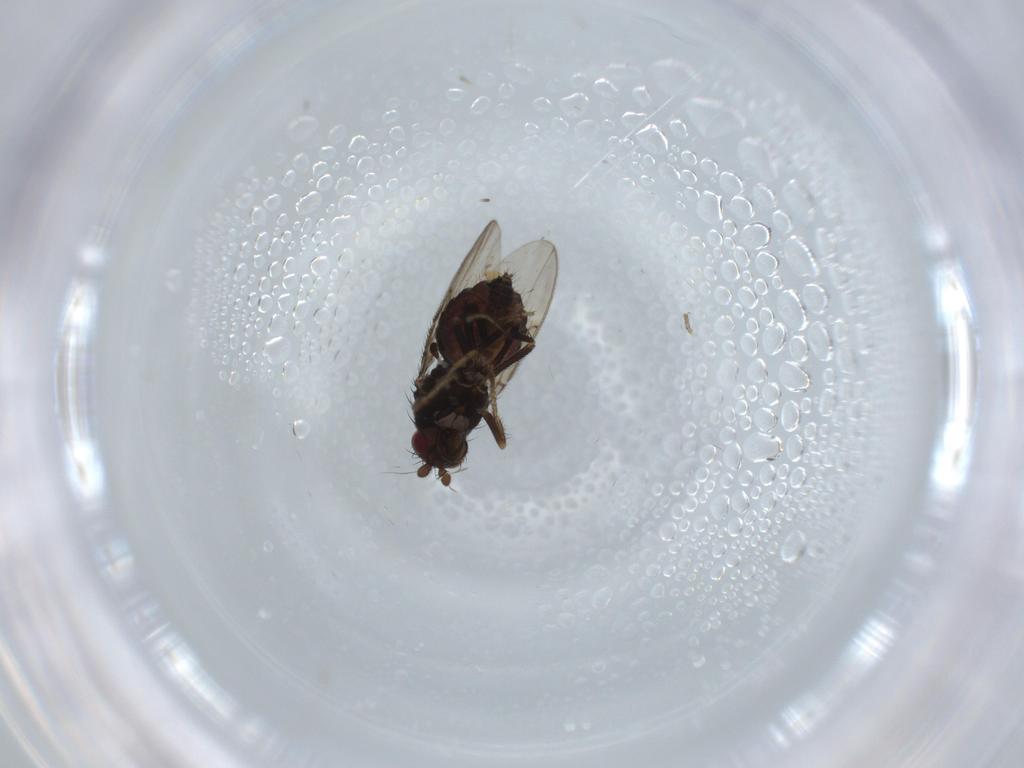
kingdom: Animalia
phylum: Arthropoda
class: Insecta
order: Diptera
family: Sphaeroceridae
